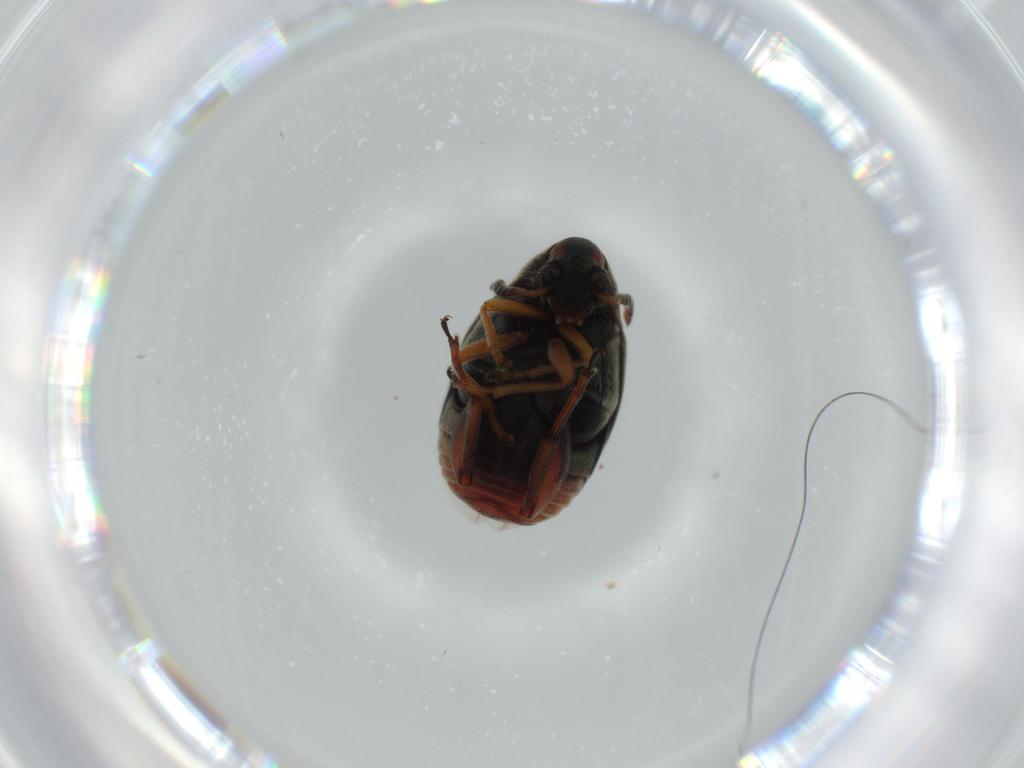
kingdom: Animalia
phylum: Arthropoda
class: Insecta
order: Coleoptera
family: Chrysomelidae
